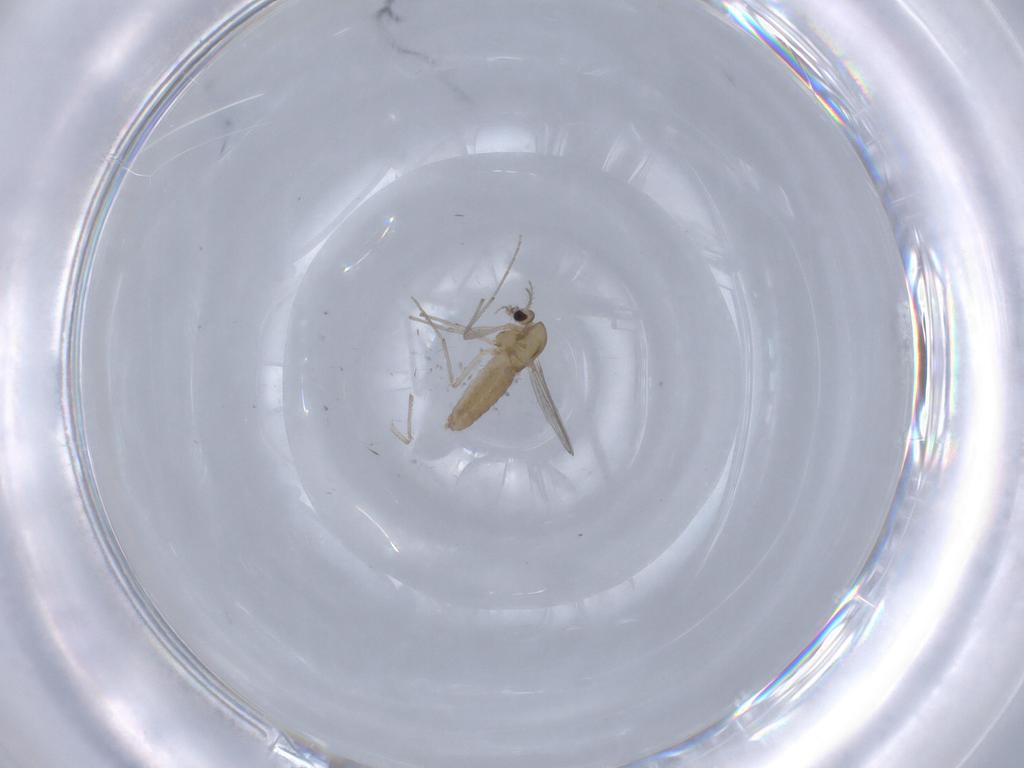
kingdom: Animalia
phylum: Arthropoda
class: Insecta
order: Diptera
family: Chironomidae
